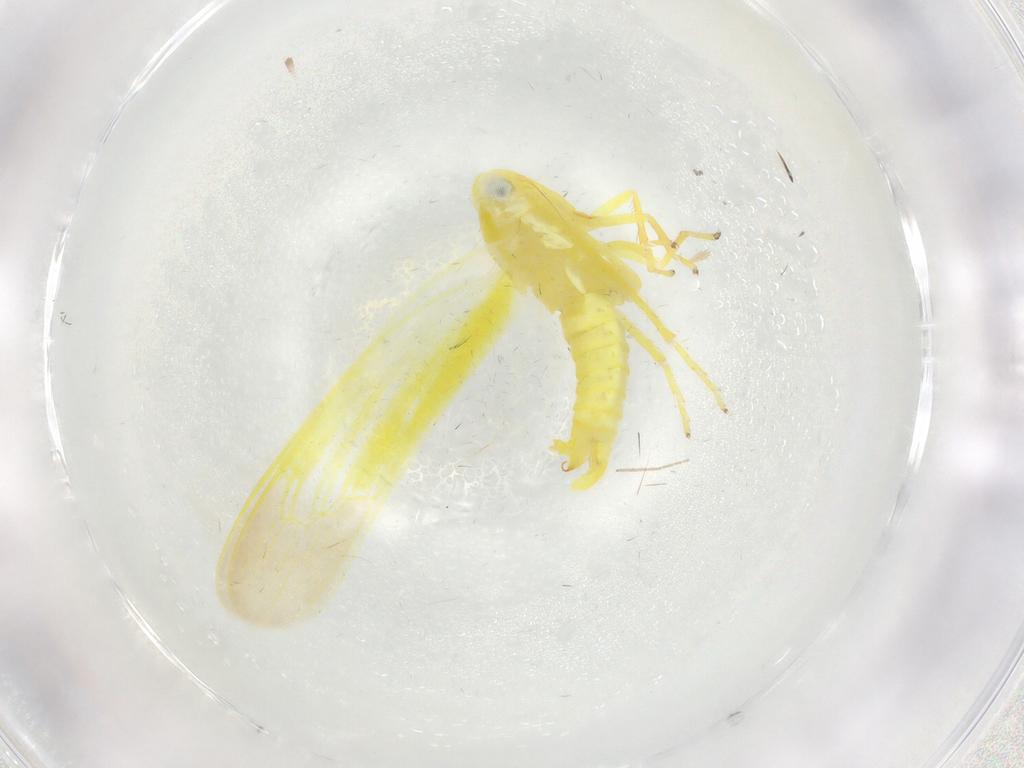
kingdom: Animalia
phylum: Arthropoda
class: Insecta
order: Hemiptera
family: Cicadellidae
